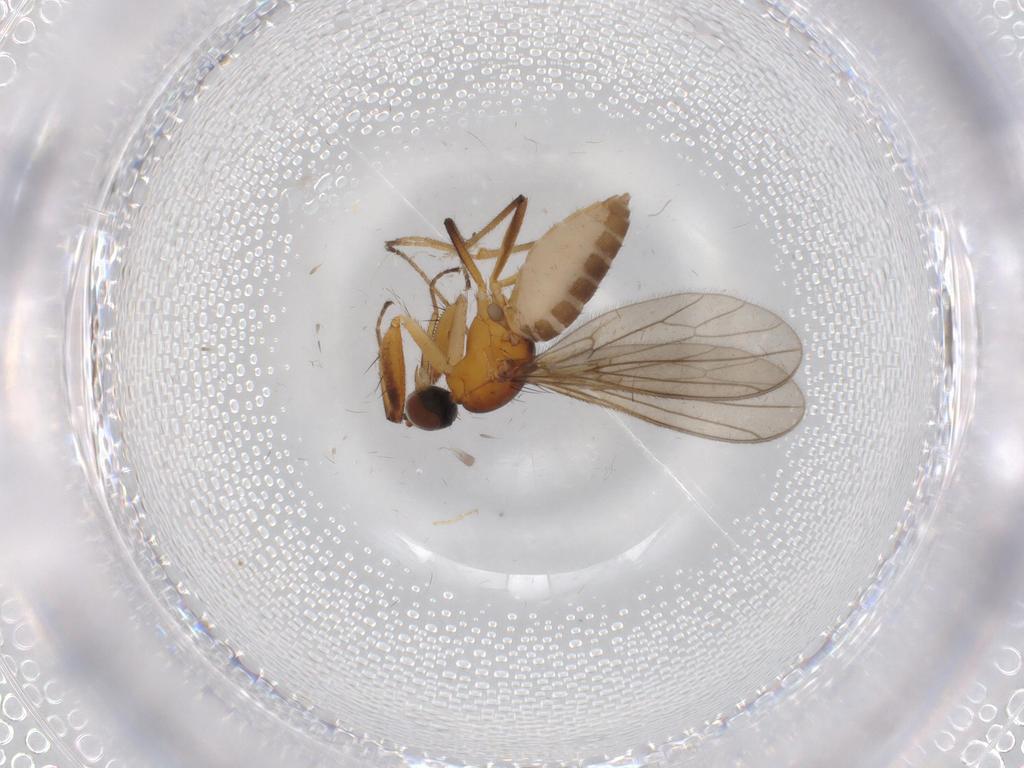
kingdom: Animalia
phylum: Arthropoda
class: Insecta
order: Diptera
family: Empididae
